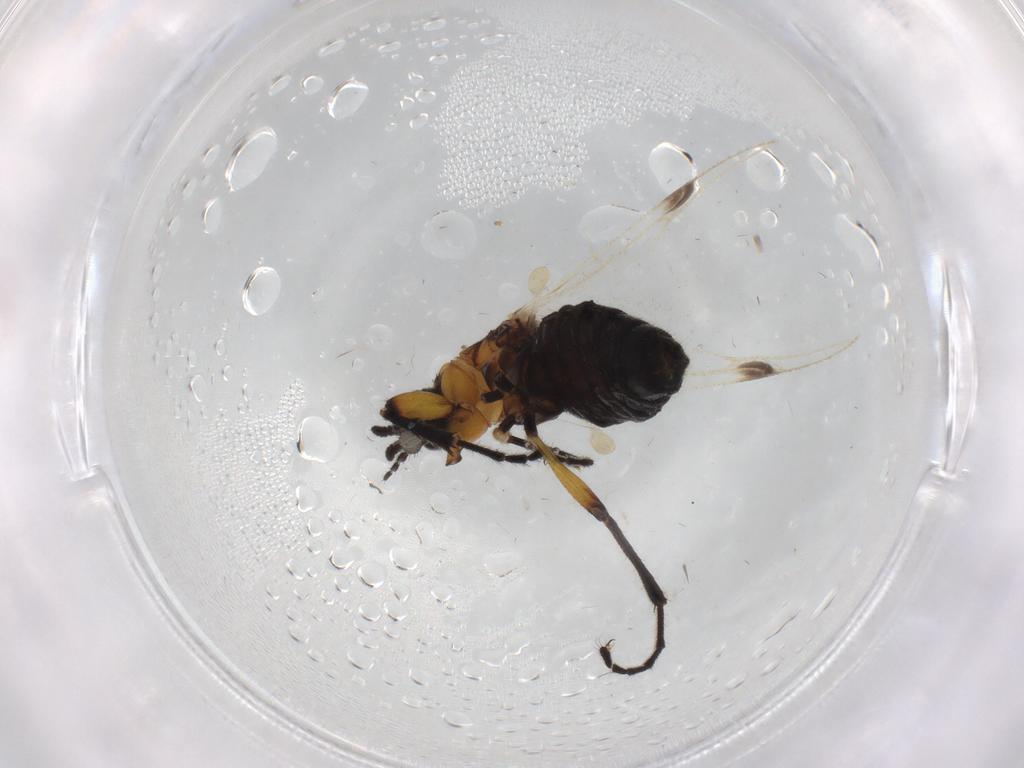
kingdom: Animalia
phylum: Arthropoda
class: Insecta
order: Diptera
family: Bibionidae
